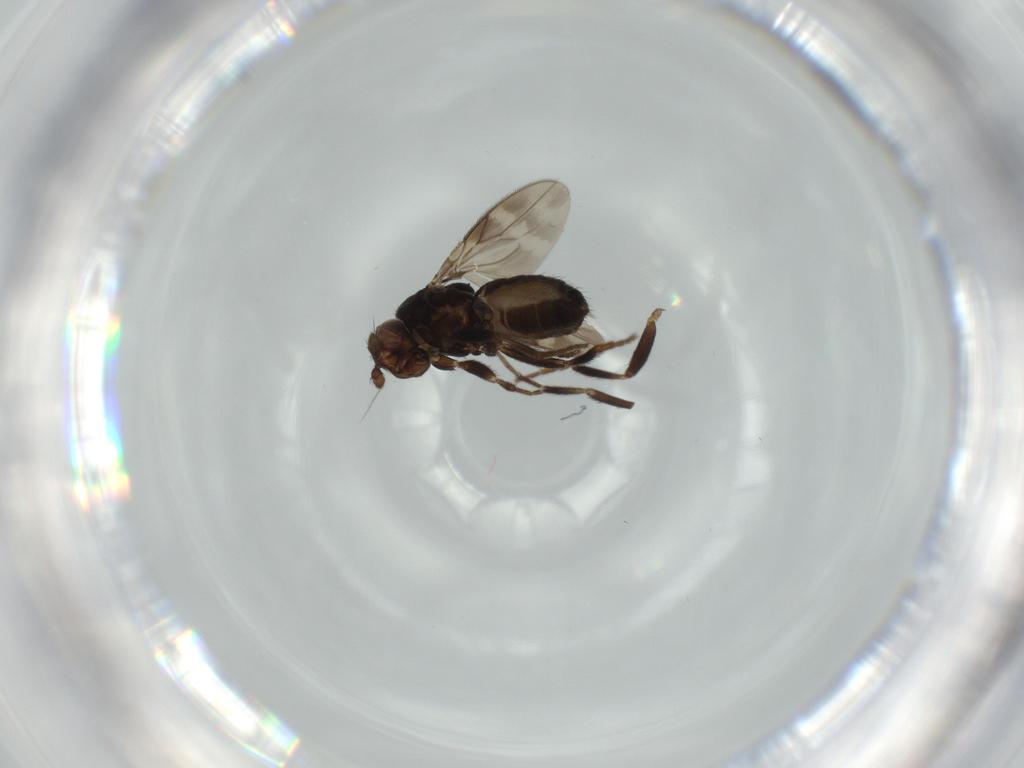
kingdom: Animalia
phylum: Arthropoda
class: Insecta
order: Diptera
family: Sphaeroceridae
